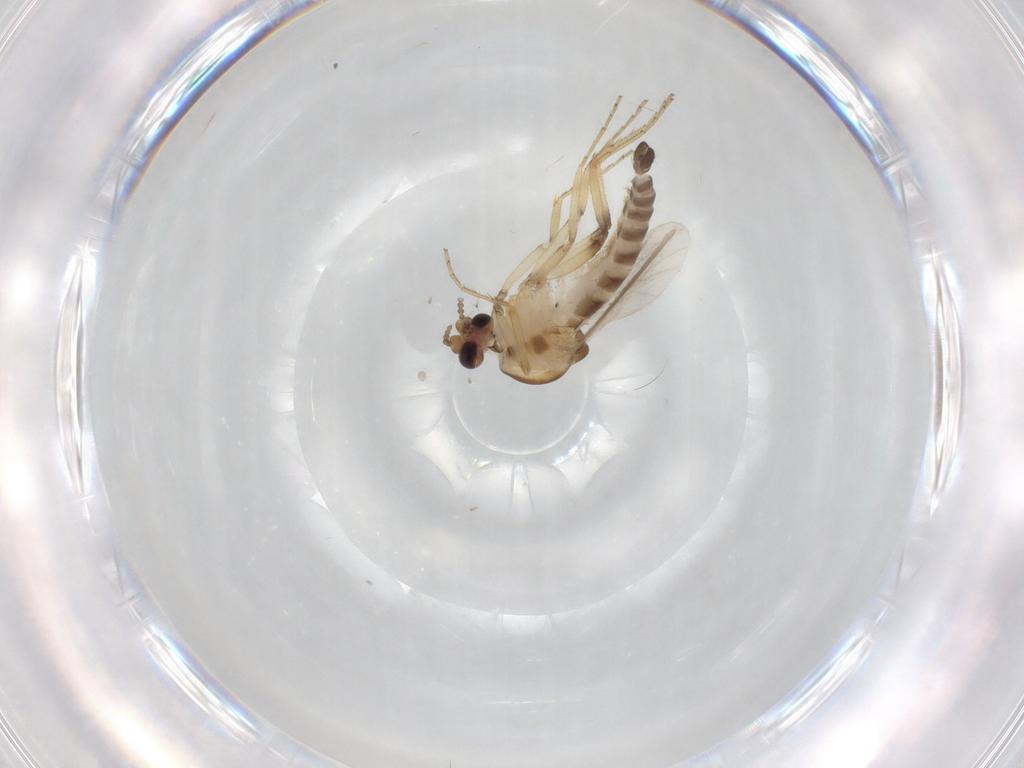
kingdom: Animalia
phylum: Arthropoda
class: Insecta
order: Diptera
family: Ceratopogonidae
